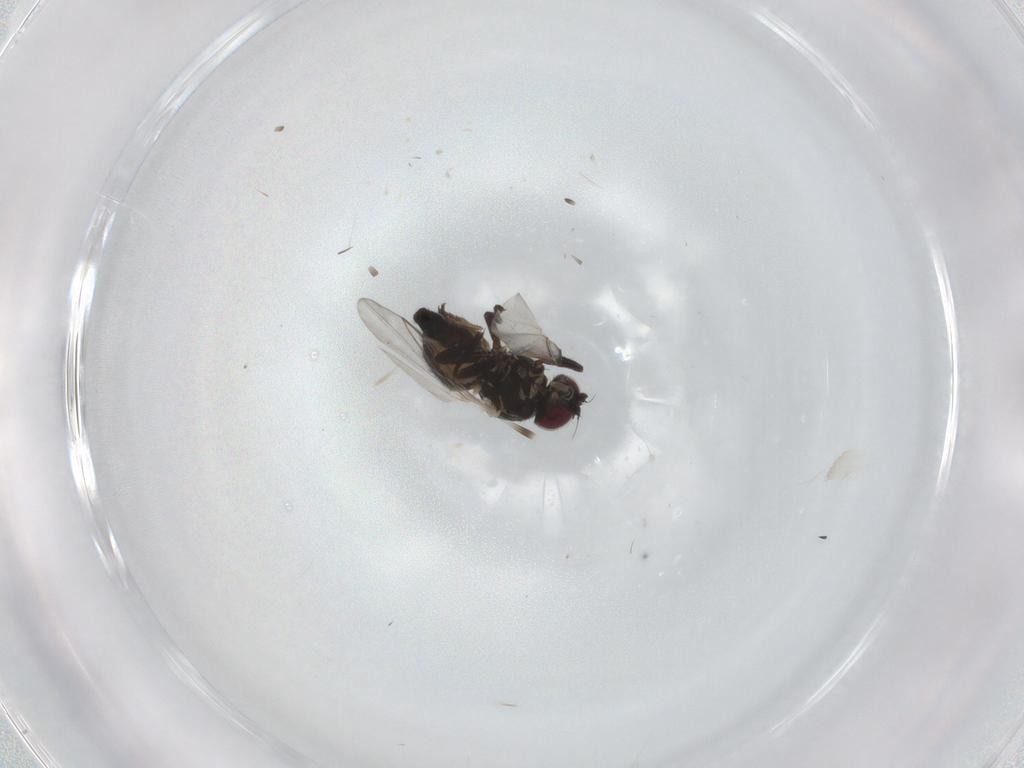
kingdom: Animalia
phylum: Arthropoda
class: Insecta
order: Diptera
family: Agromyzidae
